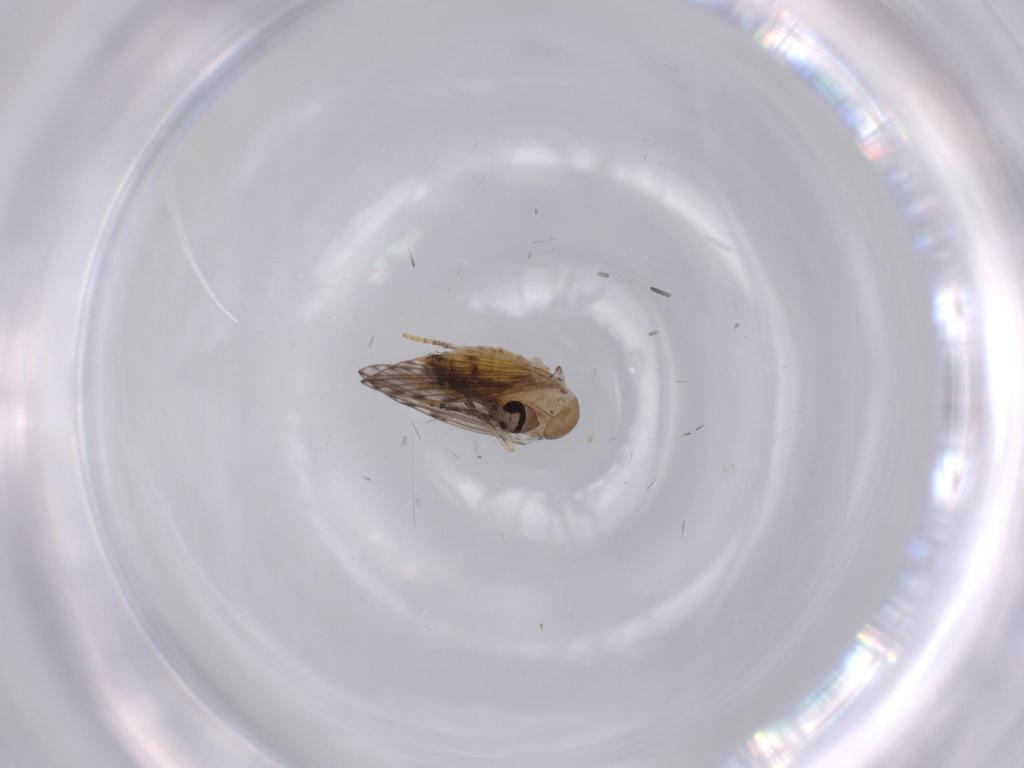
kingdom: Animalia
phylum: Arthropoda
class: Insecta
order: Diptera
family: Psychodidae
